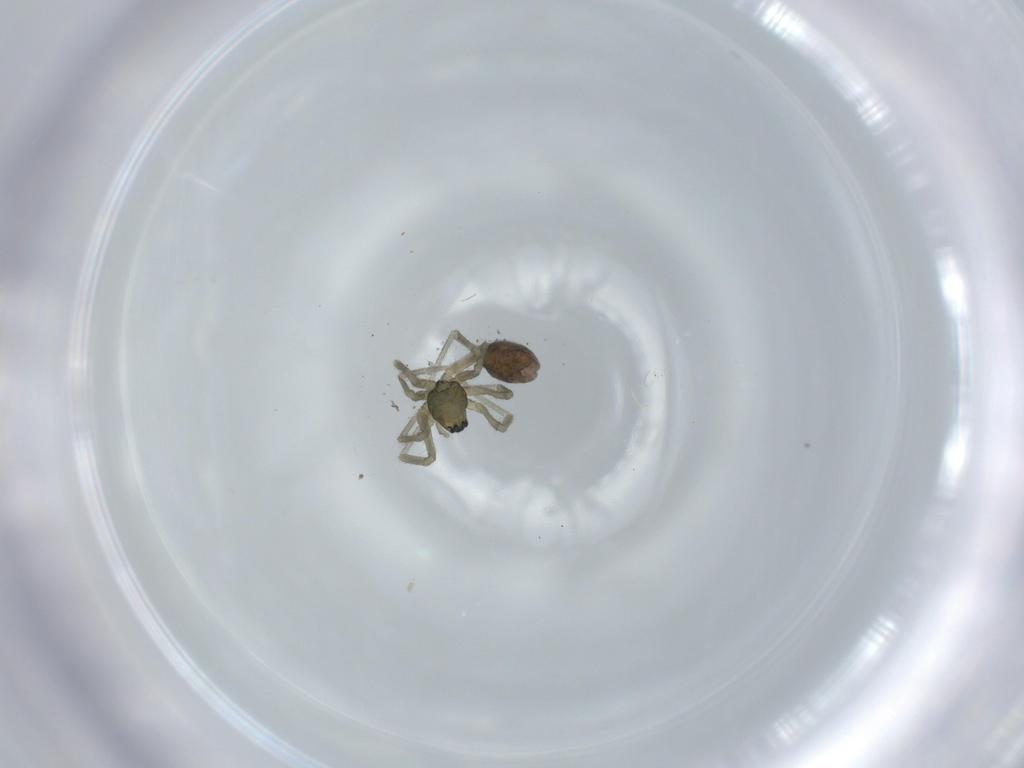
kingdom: Animalia
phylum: Arthropoda
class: Arachnida
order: Araneae
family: Linyphiidae
